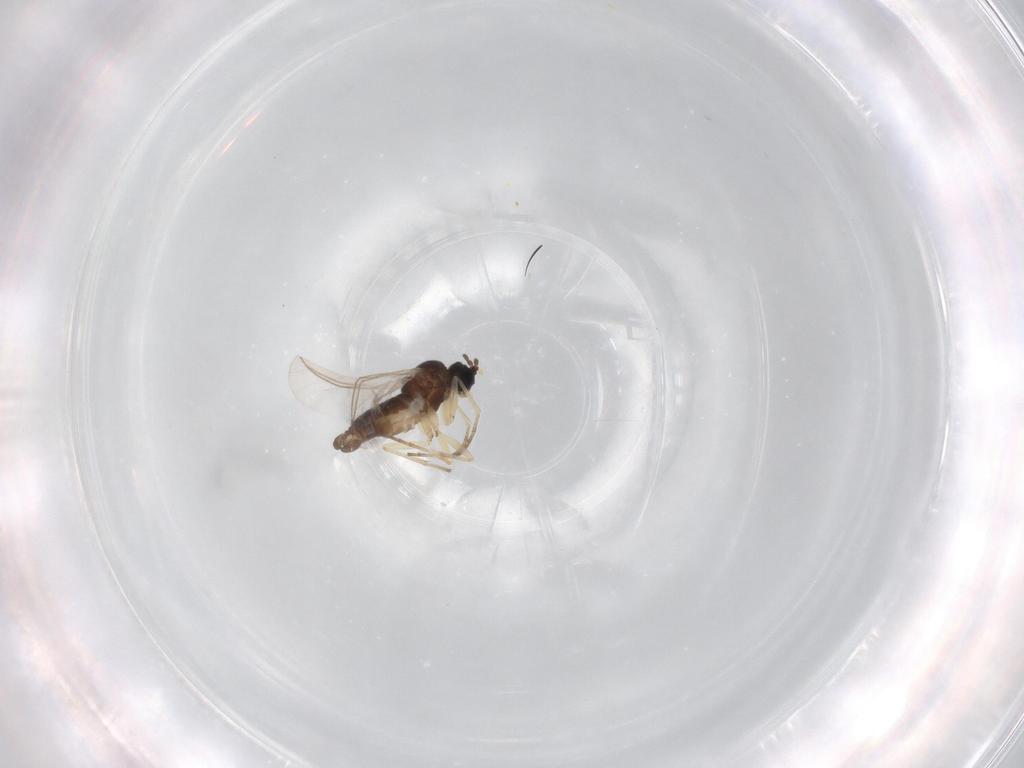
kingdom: Animalia
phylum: Arthropoda
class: Insecta
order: Diptera
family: Sciaridae
